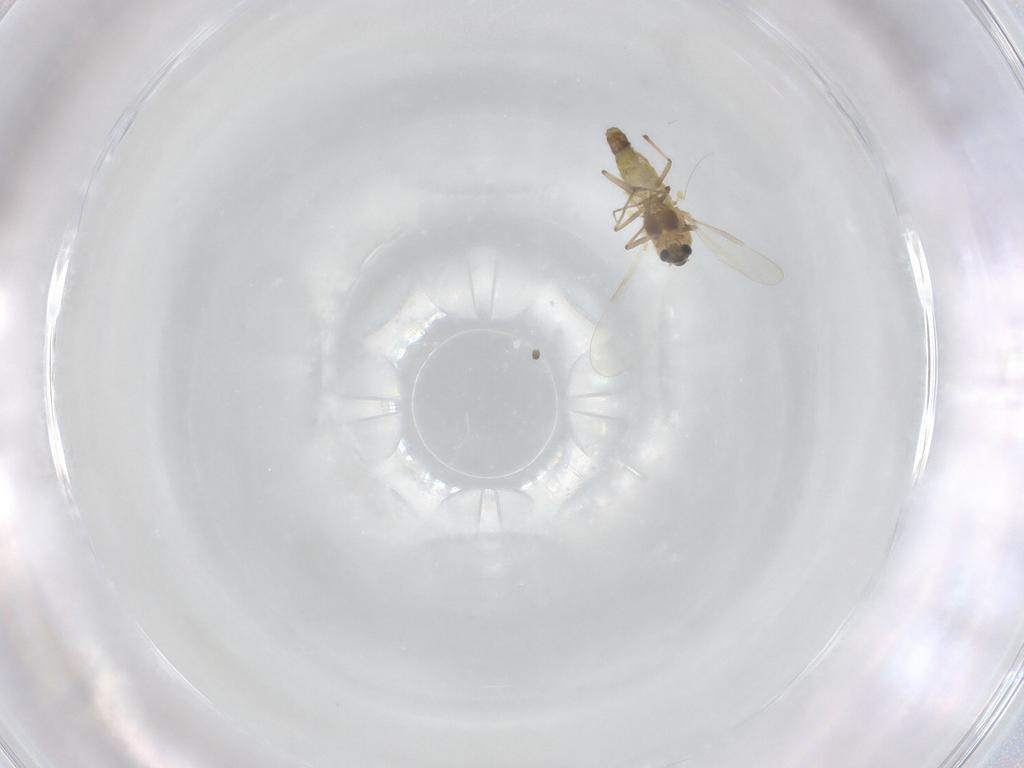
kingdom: Animalia
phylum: Arthropoda
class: Insecta
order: Diptera
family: Chironomidae
